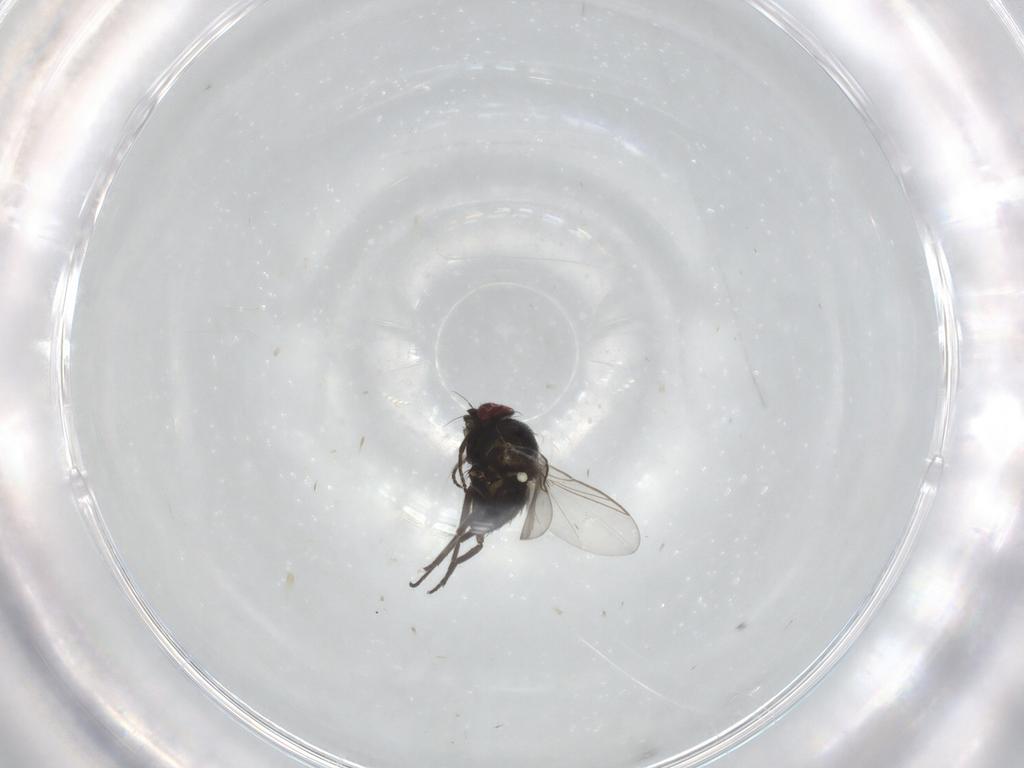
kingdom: Animalia
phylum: Arthropoda
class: Insecta
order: Diptera
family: Agromyzidae
